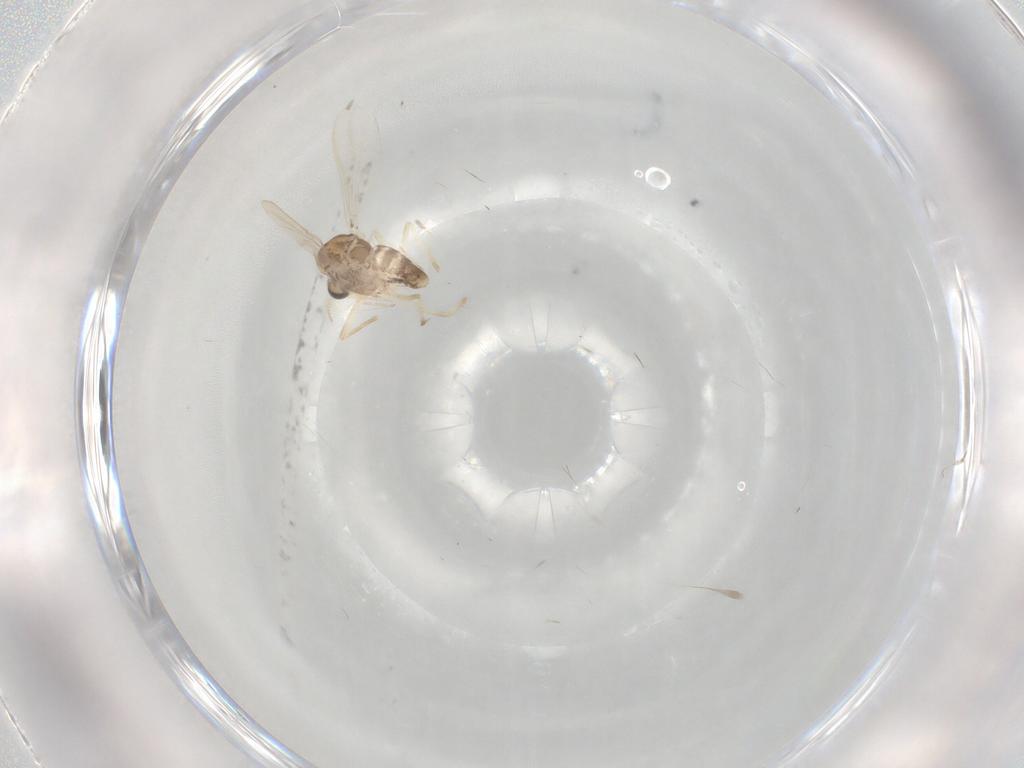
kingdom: Animalia
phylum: Arthropoda
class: Insecta
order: Diptera
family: Chironomidae
